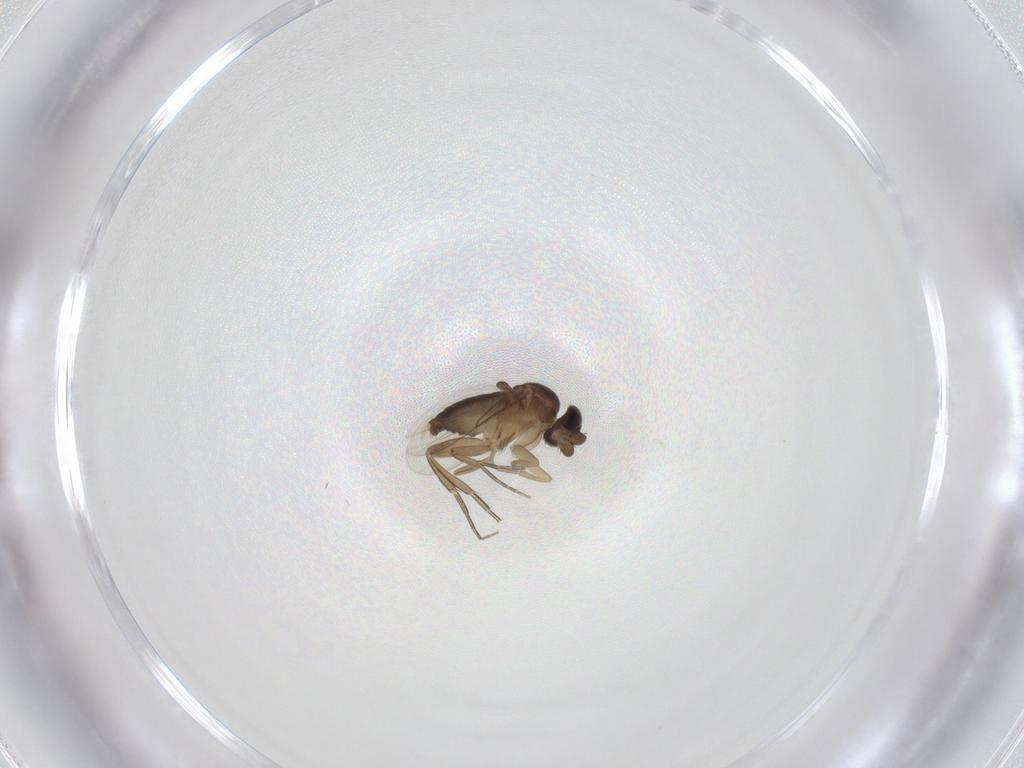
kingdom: Animalia
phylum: Arthropoda
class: Insecta
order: Diptera
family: Phoridae
